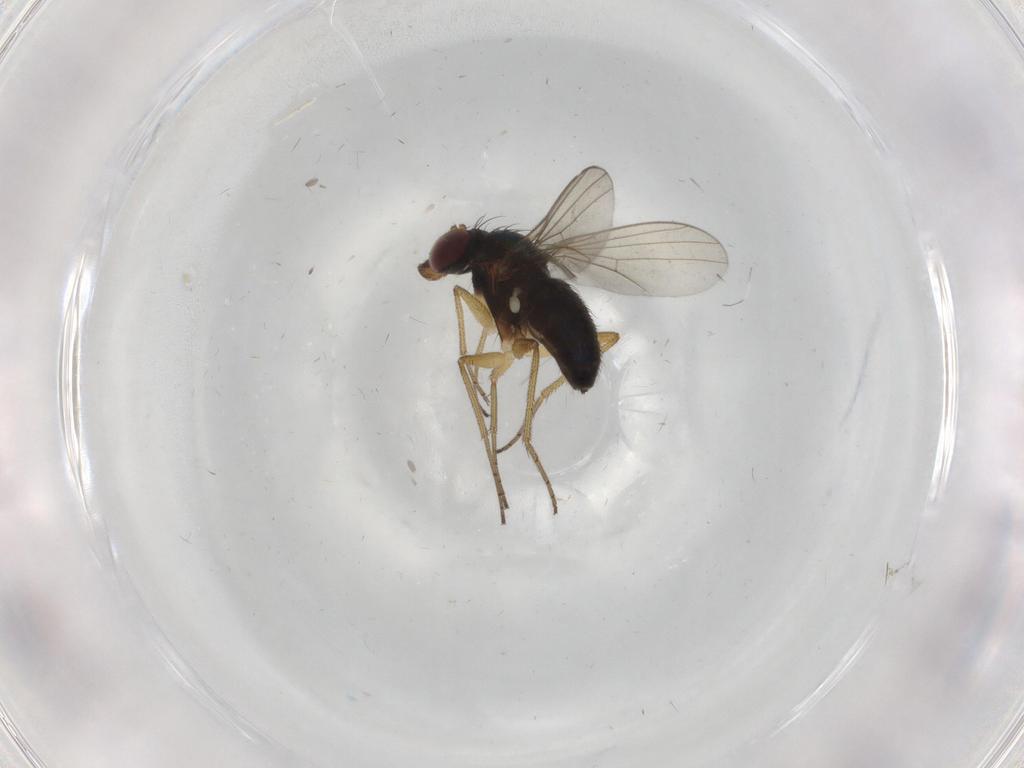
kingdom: Animalia
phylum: Arthropoda
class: Insecta
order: Diptera
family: Dolichopodidae
